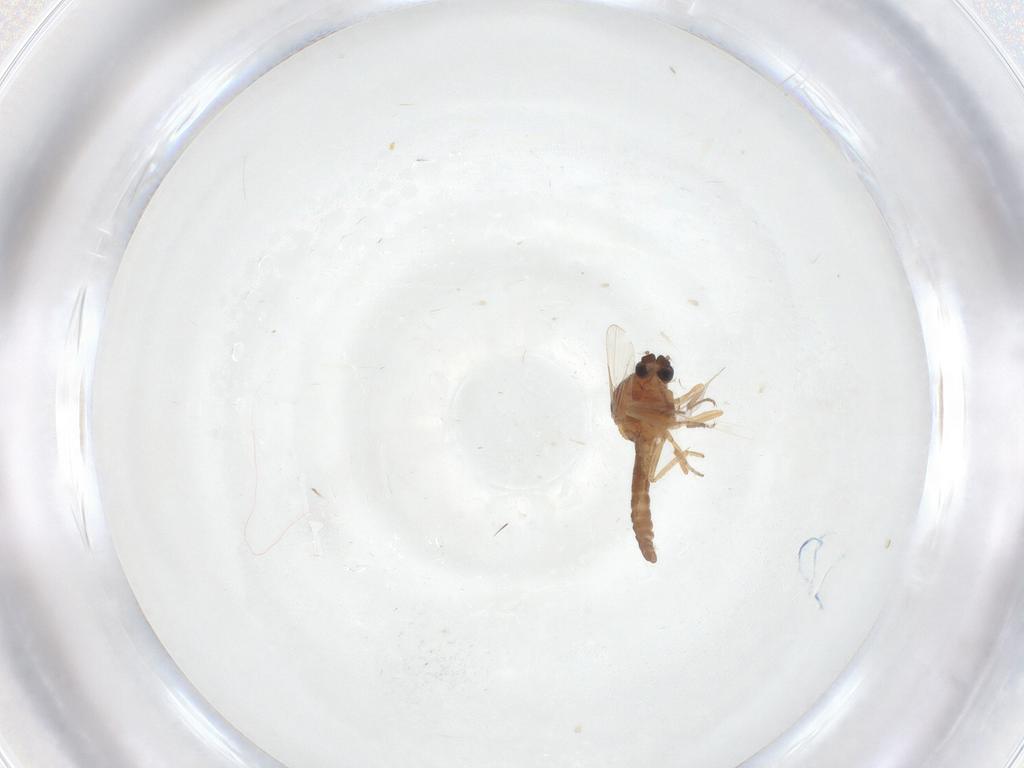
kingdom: Animalia
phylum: Arthropoda
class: Insecta
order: Diptera
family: Ceratopogonidae
